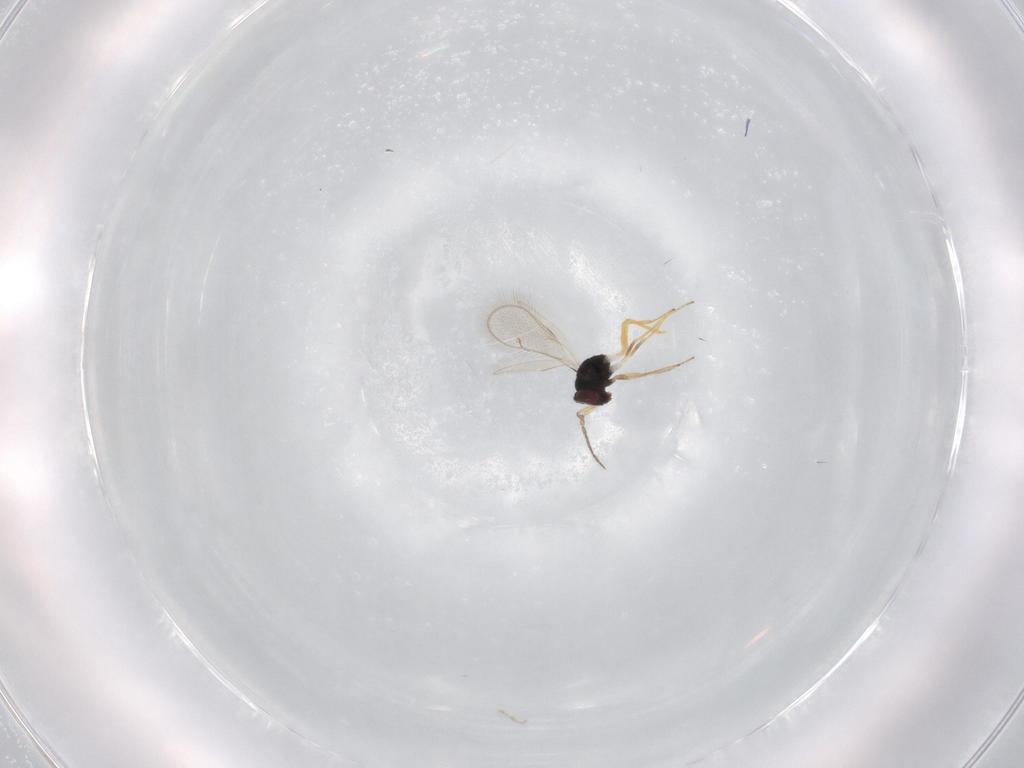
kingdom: Animalia
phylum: Arthropoda
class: Insecta
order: Hymenoptera
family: Eulophidae
